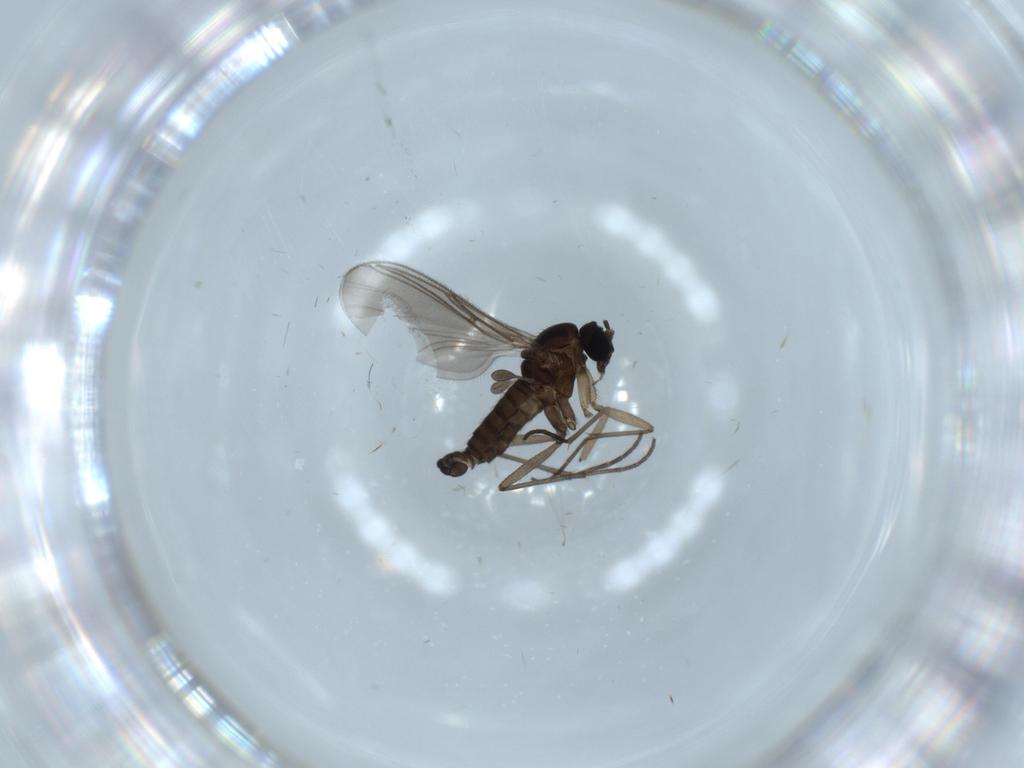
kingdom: Animalia
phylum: Arthropoda
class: Insecta
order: Diptera
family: Sciaridae
